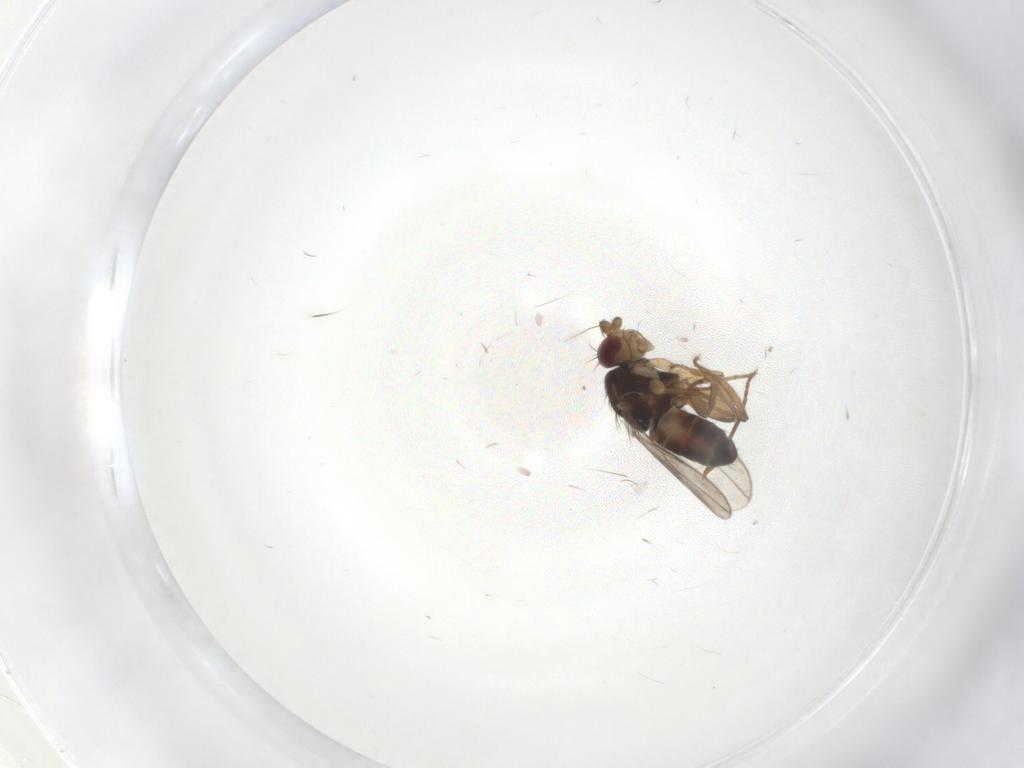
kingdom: Animalia
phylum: Arthropoda
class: Insecta
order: Diptera
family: Sphaeroceridae
